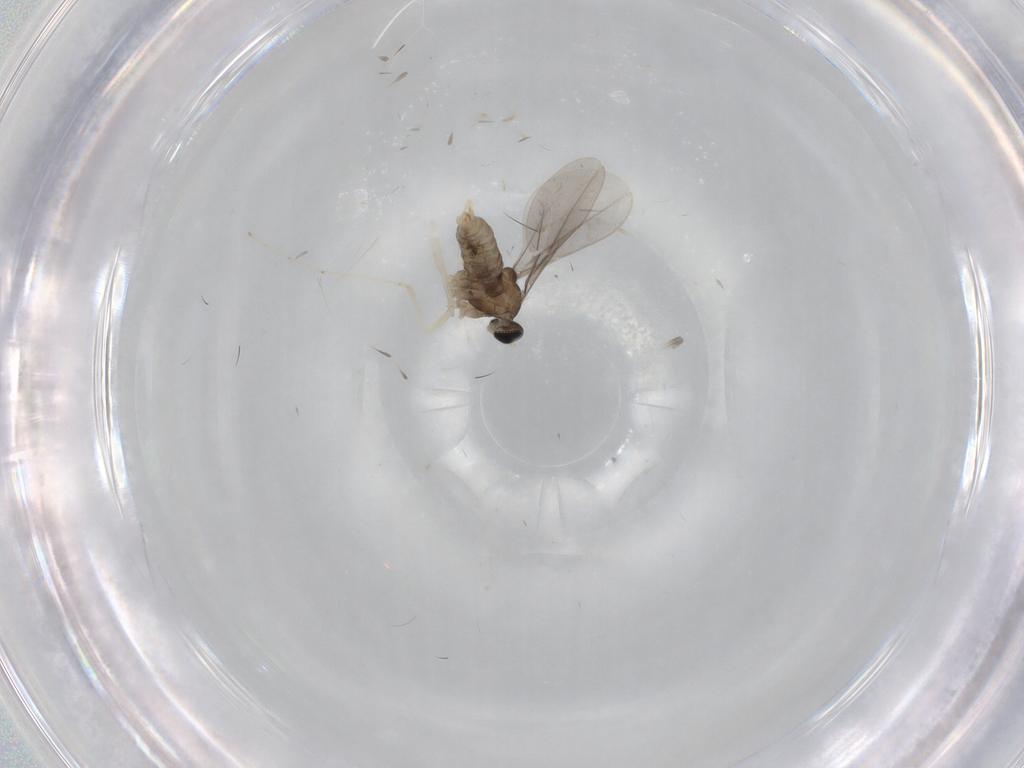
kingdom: Animalia
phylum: Arthropoda
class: Insecta
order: Diptera
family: Cecidomyiidae
